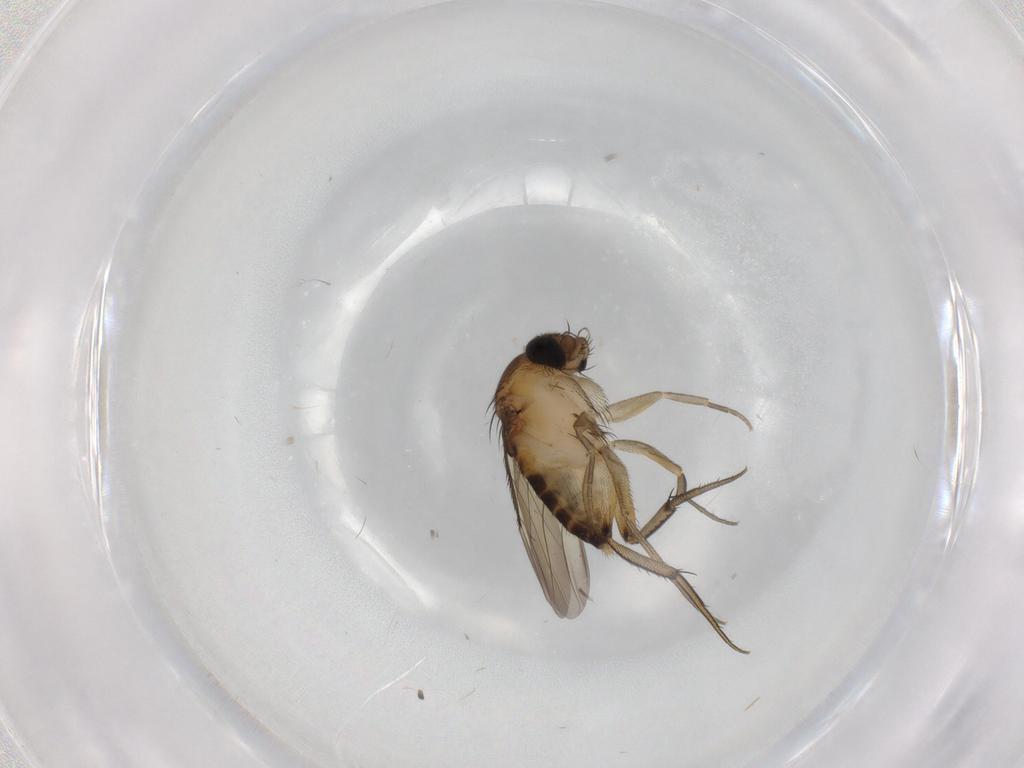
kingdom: Animalia
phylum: Arthropoda
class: Insecta
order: Diptera
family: Phoridae
